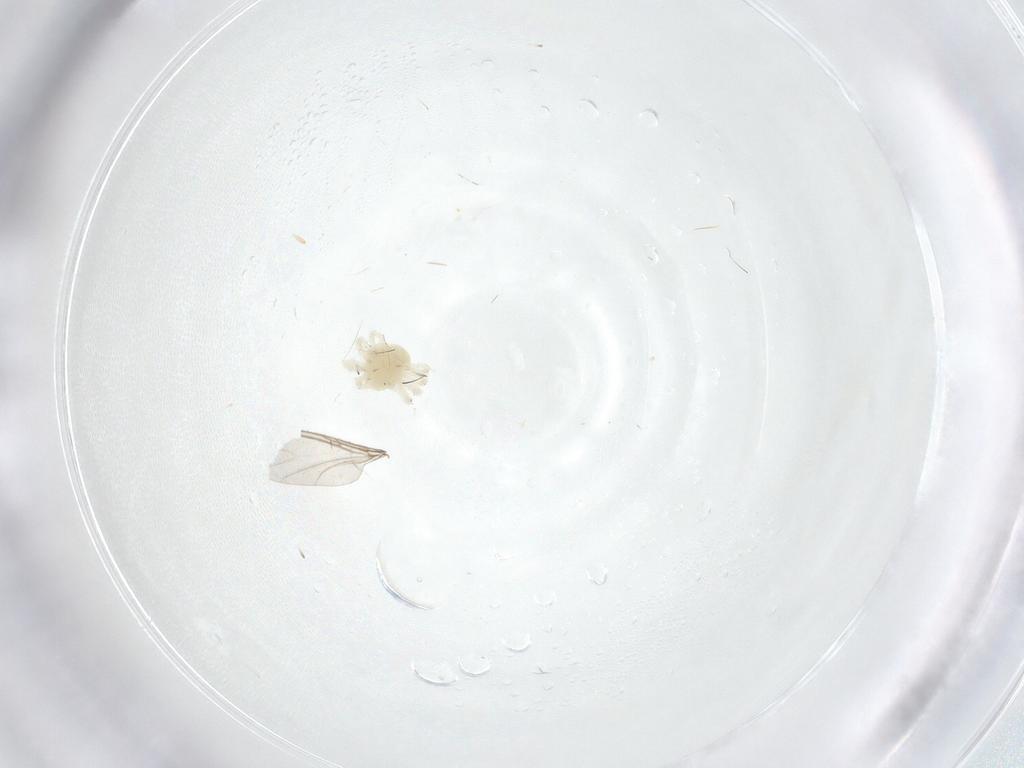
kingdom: Animalia
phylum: Arthropoda
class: Arachnida
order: Trombidiformes
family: Anystidae
